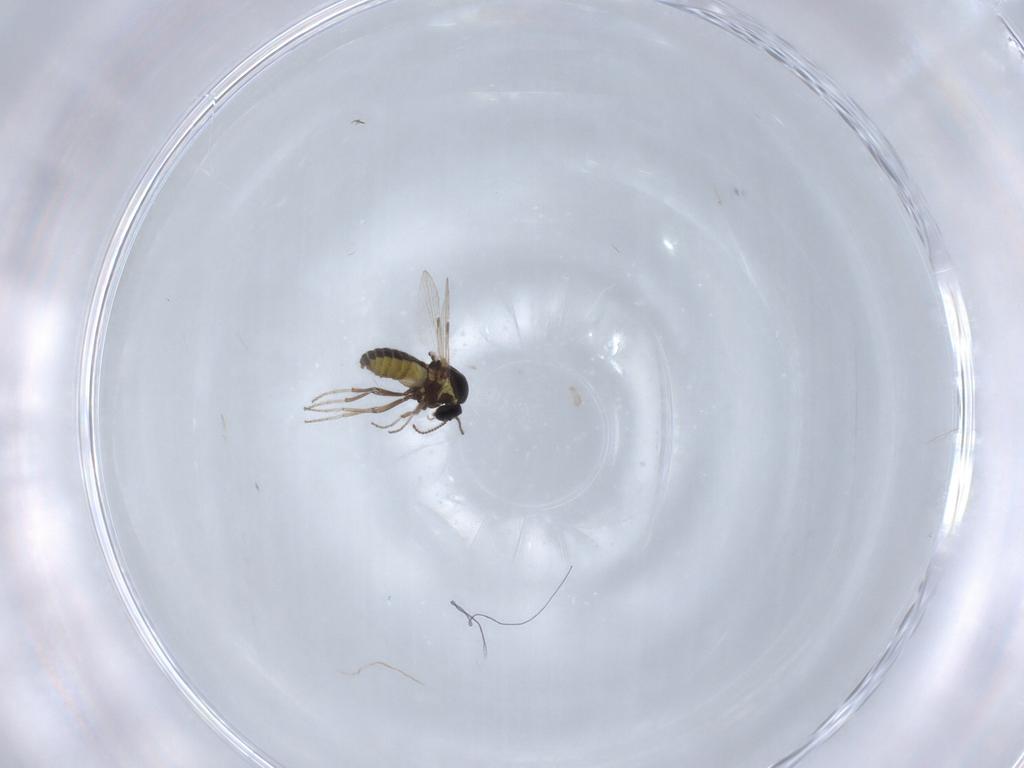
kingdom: Animalia
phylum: Arthropoda
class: Insecta
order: Diptera
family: Ceratopogonidae
